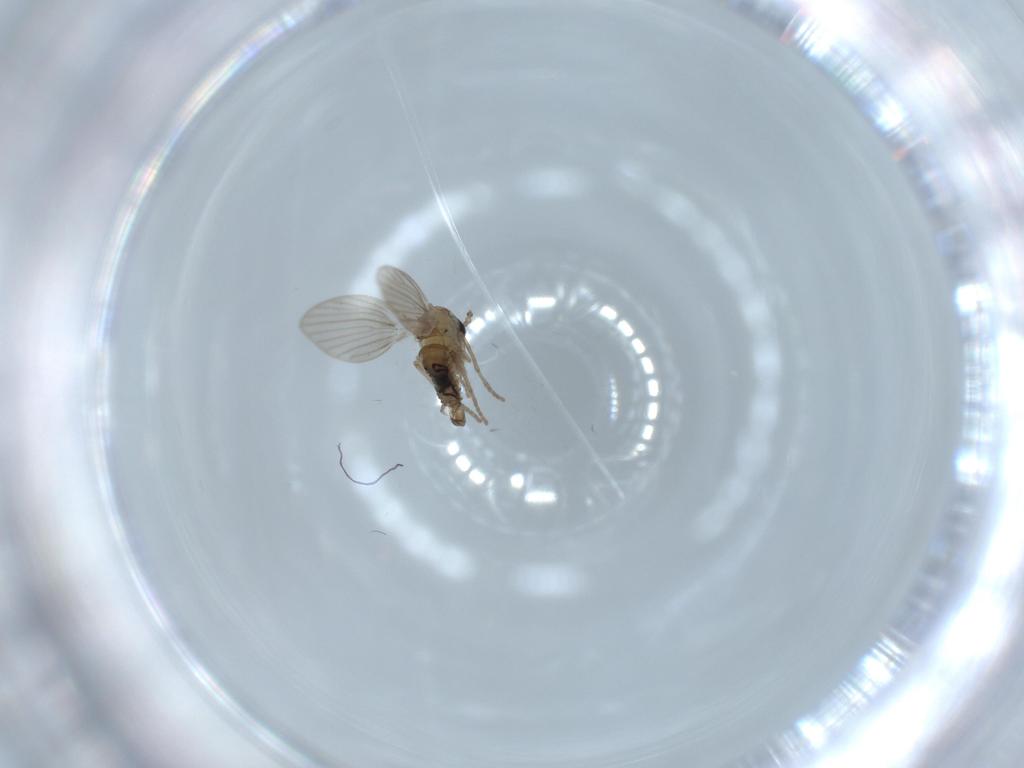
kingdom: Animalia
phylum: Arthropoda
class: Insecta
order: Diptera
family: Psychodidae
